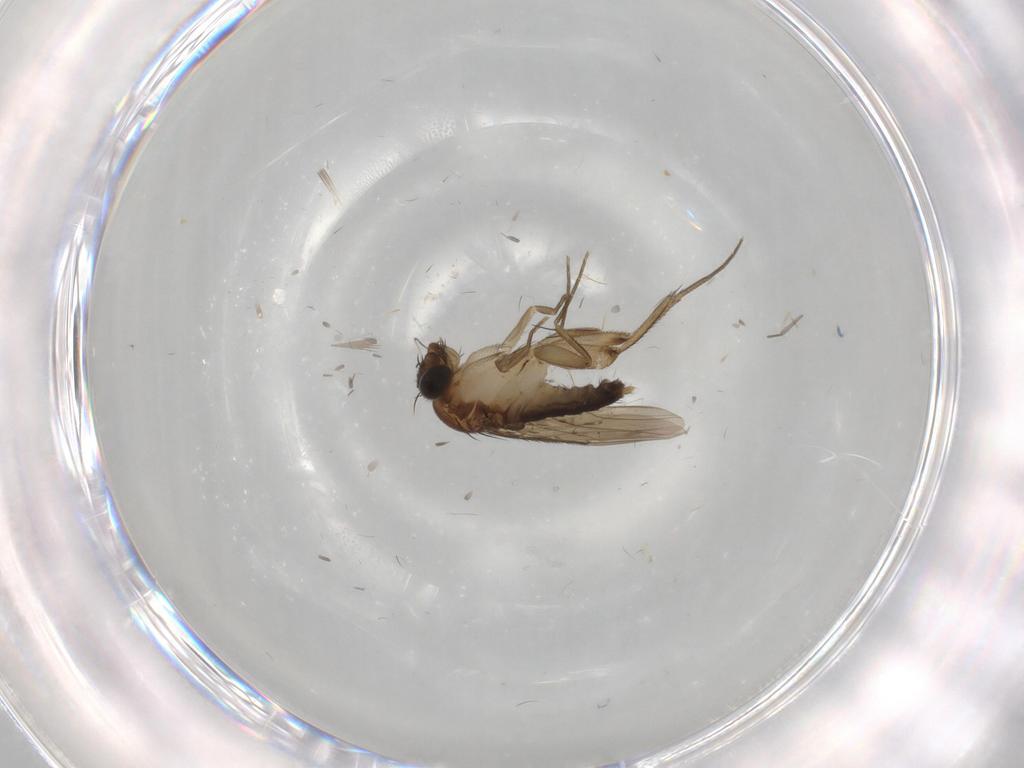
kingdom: Animalia
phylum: Arthropoda
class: Insecta
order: Diptera
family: Phoridae
